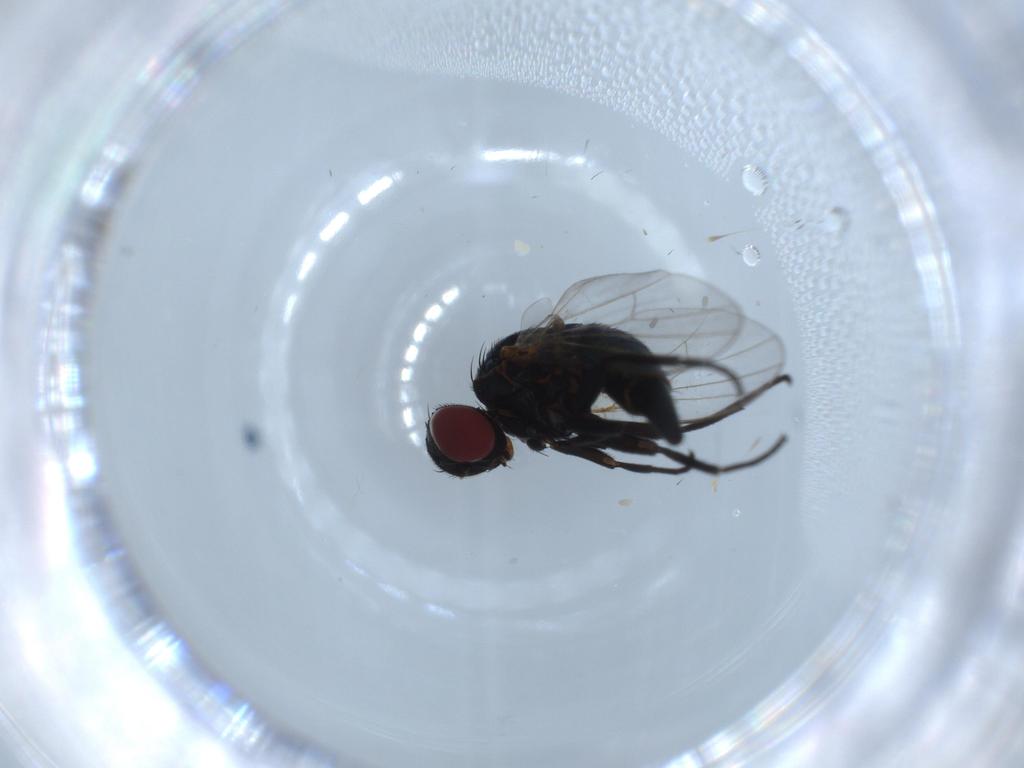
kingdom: Animalia
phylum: Arthropoda
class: Insecta
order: Diptera
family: Agromyzidae
